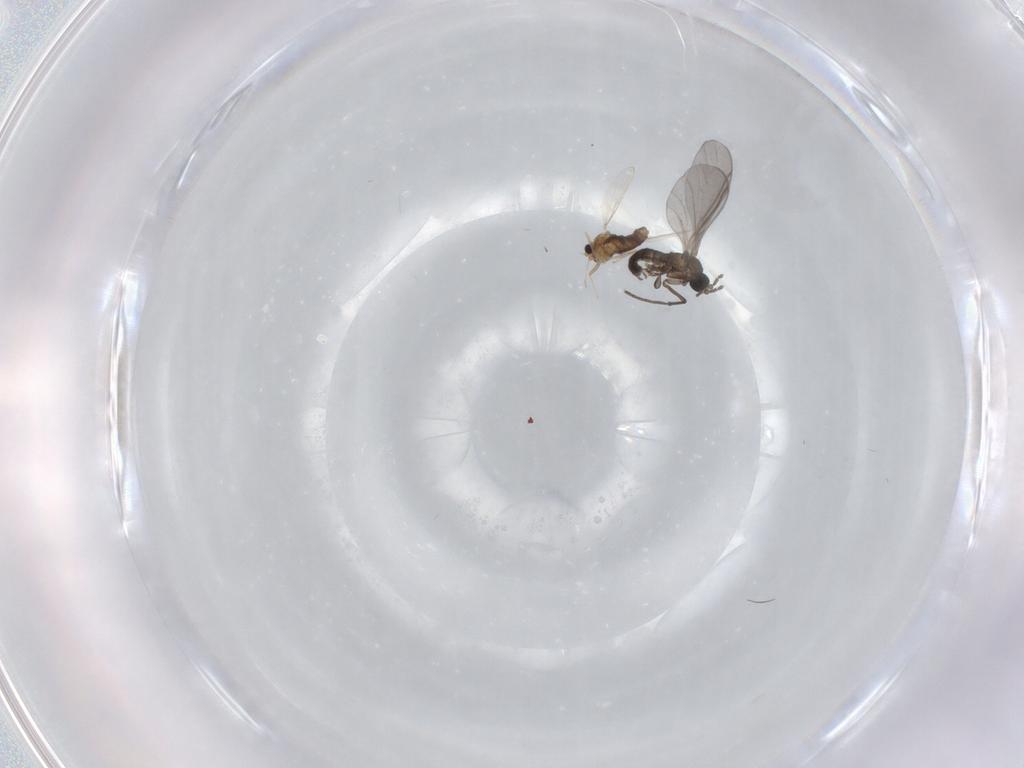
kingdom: Animalia
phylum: Arthropoda
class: Insecta
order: Diptera
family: Sciaridae
